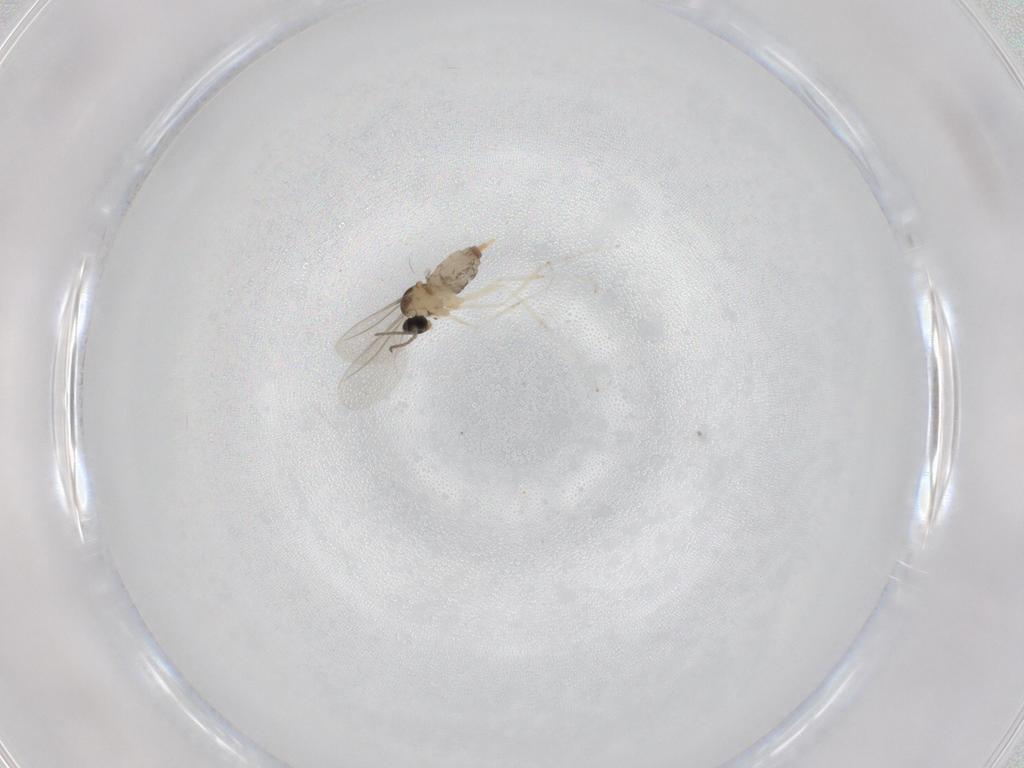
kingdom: Animalia
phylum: Arthropoda
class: Insecta
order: Diptera
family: Cecidomyiidae
